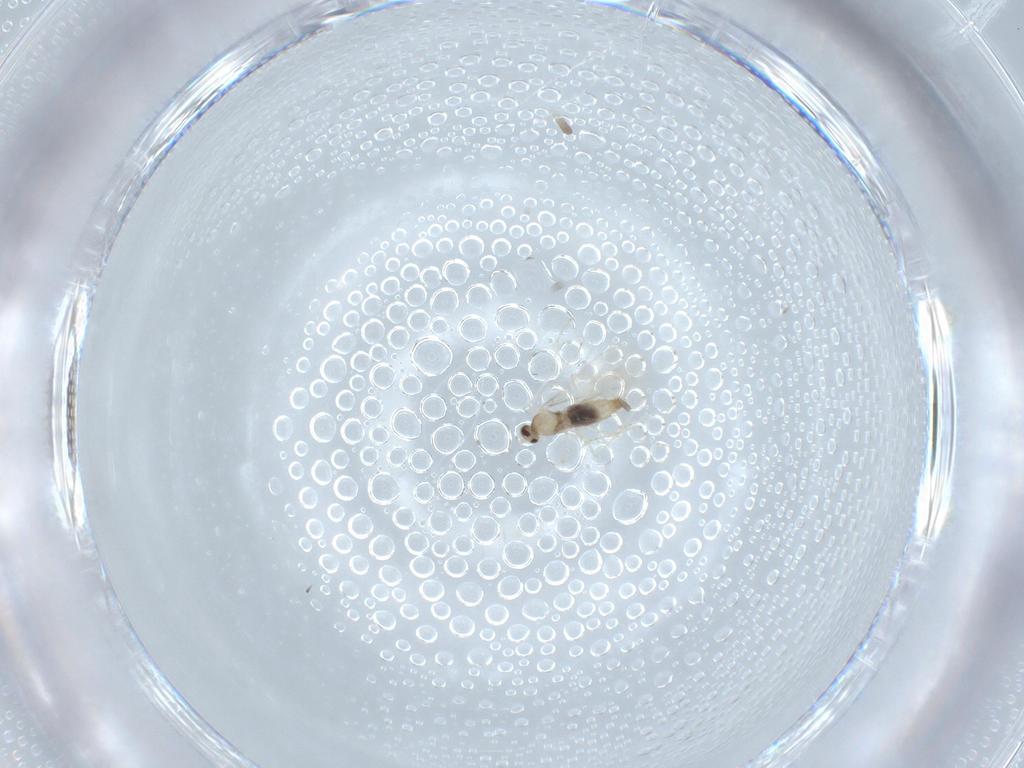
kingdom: Animalia
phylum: Arthropoda
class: Insecta
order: Diptera
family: Cecidomyiidae
